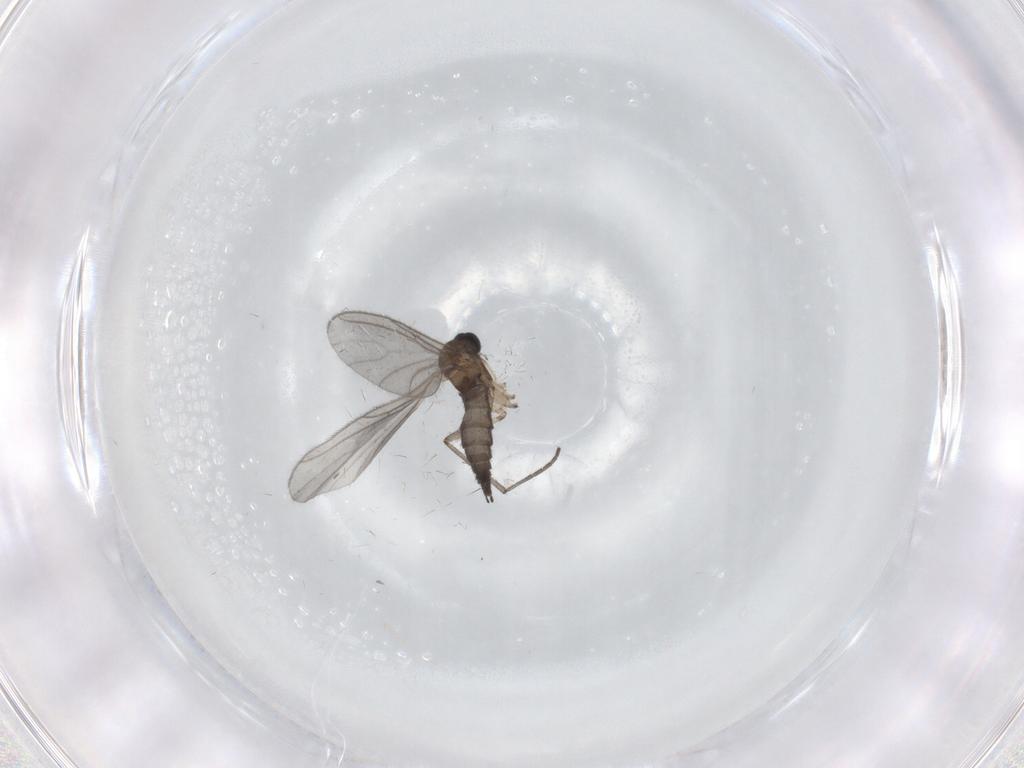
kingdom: Animalia
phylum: Arthropoda
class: Insecta
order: Diptera
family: Sciaridae
